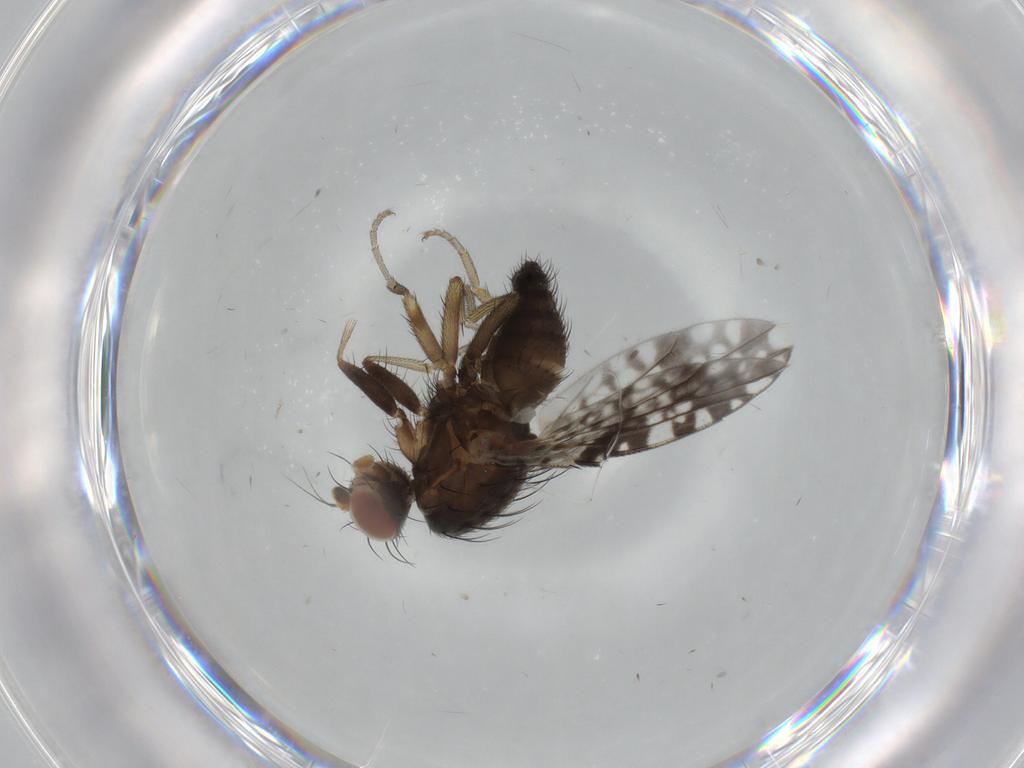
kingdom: Animalia
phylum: Arthropoda
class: Insecta
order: Diptera
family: Tephritidae
